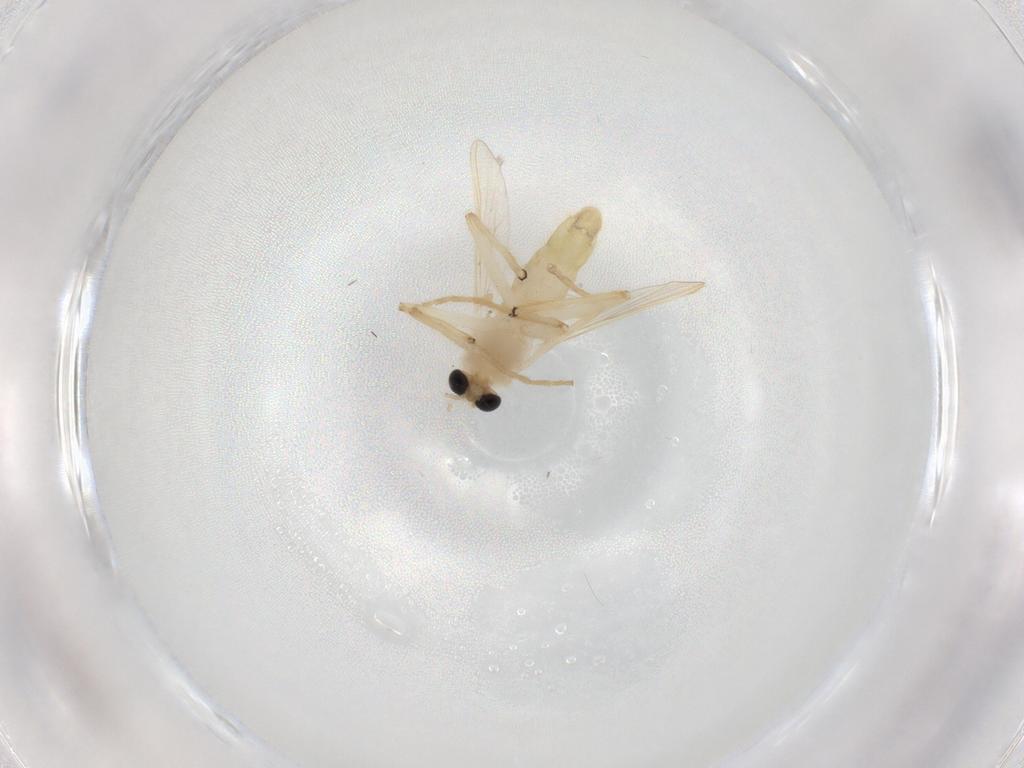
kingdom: Animalia
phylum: Arthropoda
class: Insecta
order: Diptera
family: Chironomidae
